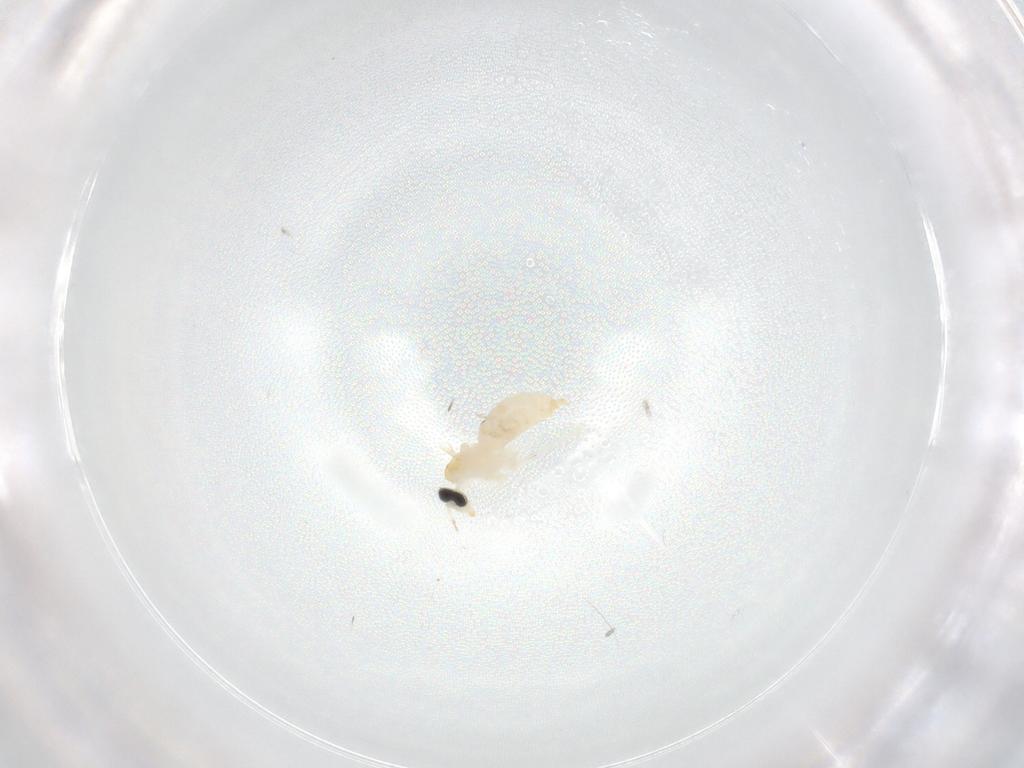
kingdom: Animalia
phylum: Arthropoda
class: Insecta
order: Diptera
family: Cecidomyiidae
